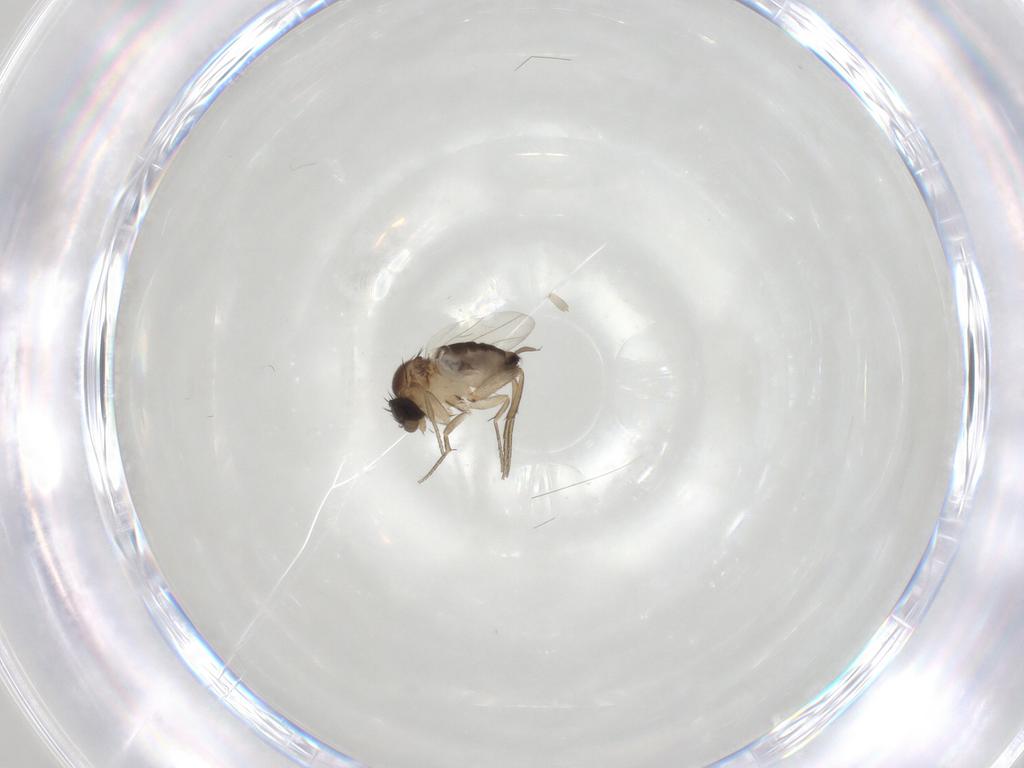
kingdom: Animalia
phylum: Arthropoda
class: Insecta
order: Diptera
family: Phoridae
